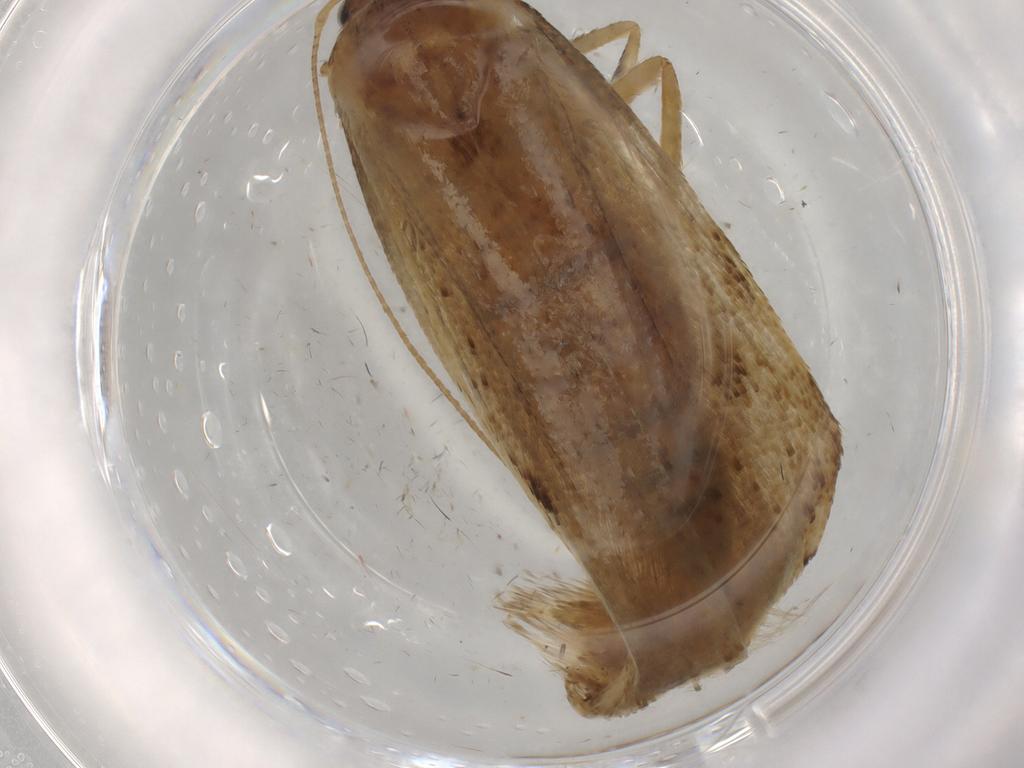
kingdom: Animalia
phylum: Arthropoda
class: Insecta
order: Lepidoptera
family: Blastobasidae
